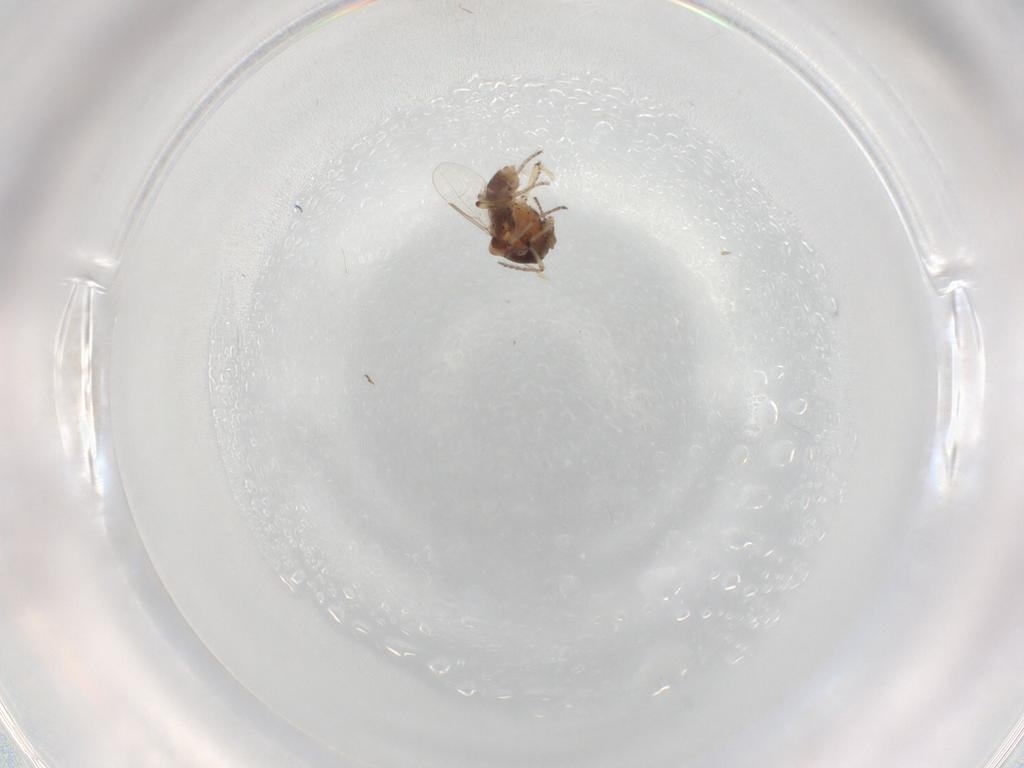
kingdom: Animalia
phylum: Arthropoda
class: Insecta
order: Diptera
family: Ceratopogonidae
